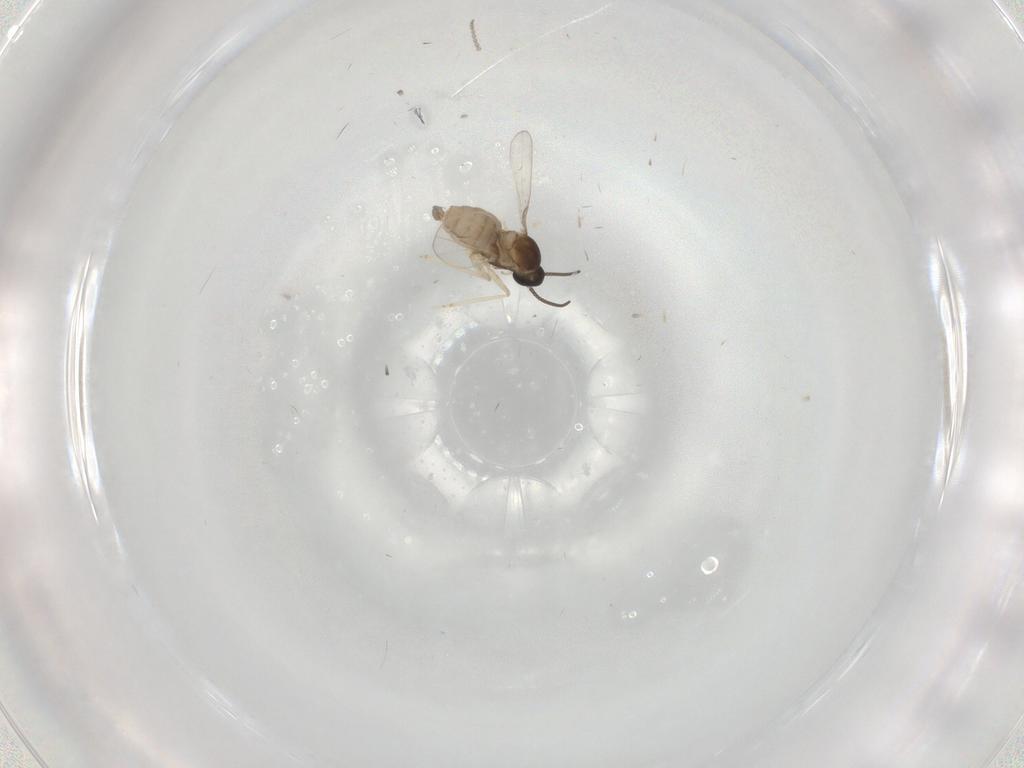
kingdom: Animalia
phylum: Arthropoda
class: Insecta
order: Diptera
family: Cecidomyiidae
